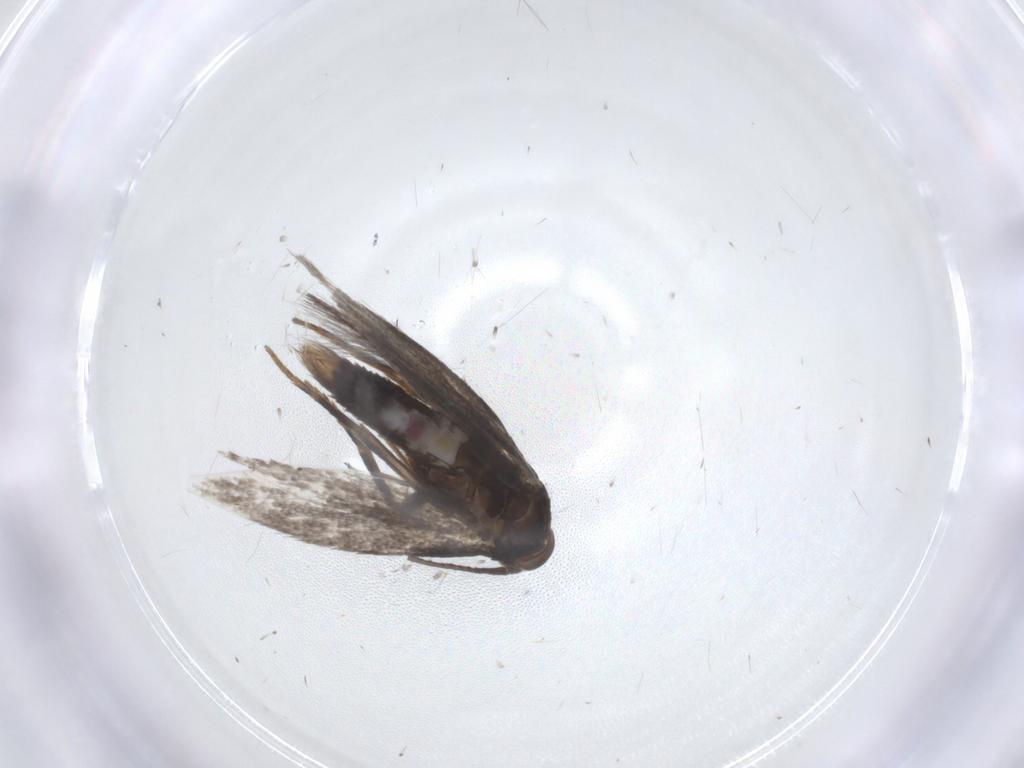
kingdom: Animalia
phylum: Arthropoda
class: Insecta
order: Lepidoptera
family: Elachistidae
